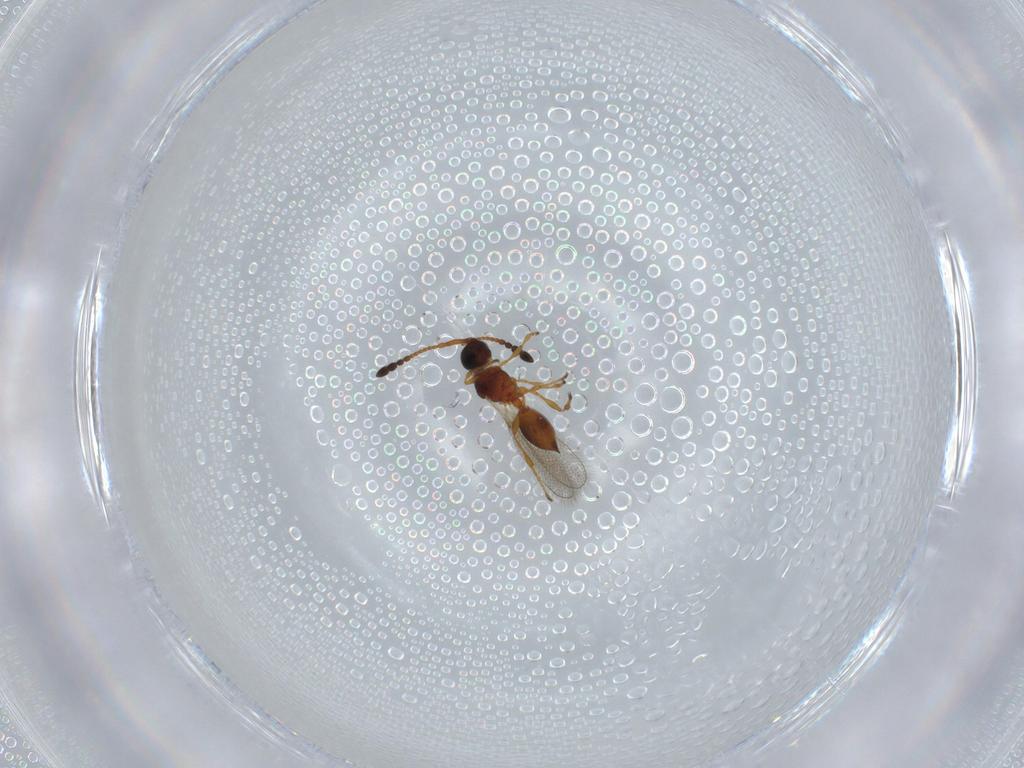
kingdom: Animalia
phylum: Arthropoda
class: Insecta
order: Hymenoptera
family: Diapriidae
